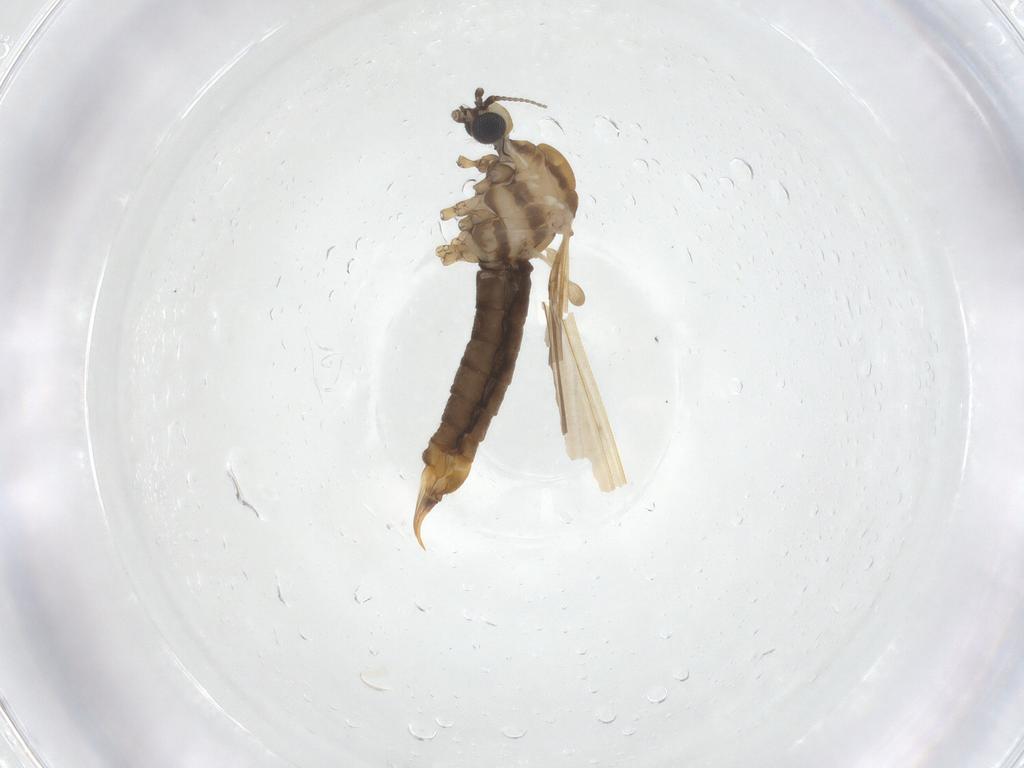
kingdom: Animalia
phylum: Arthropoda
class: Insecta
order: Diptera
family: Limoniidae
